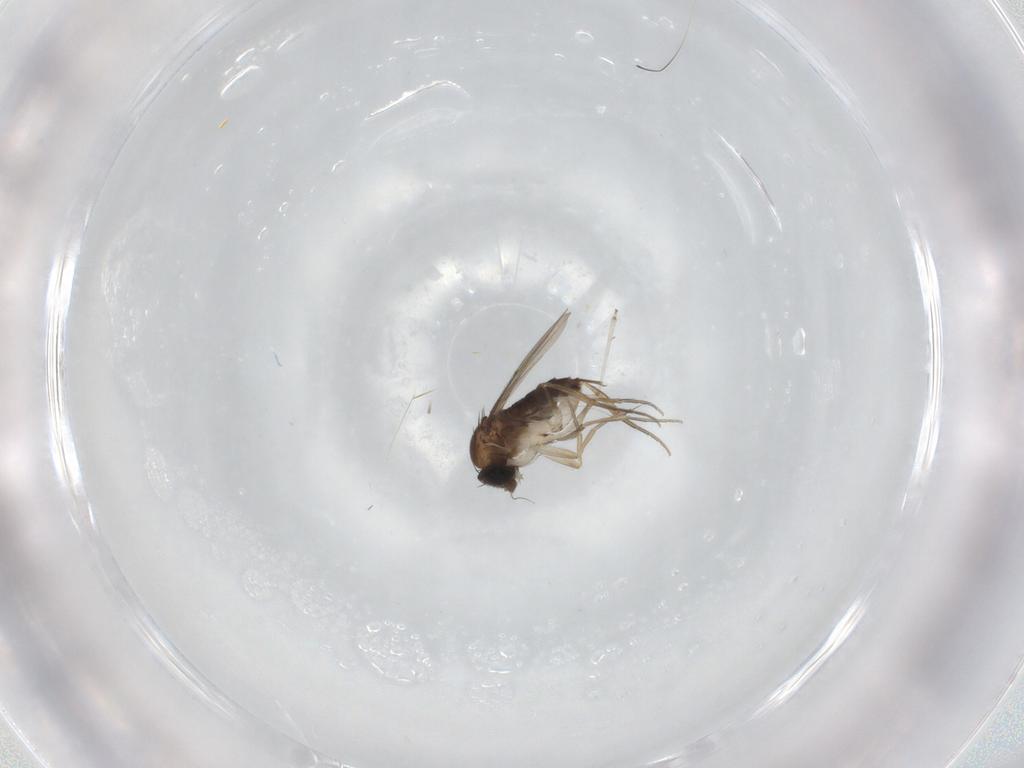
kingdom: Animalia
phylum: Arthropoda
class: Insecta
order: Diptera
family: Phoridae
